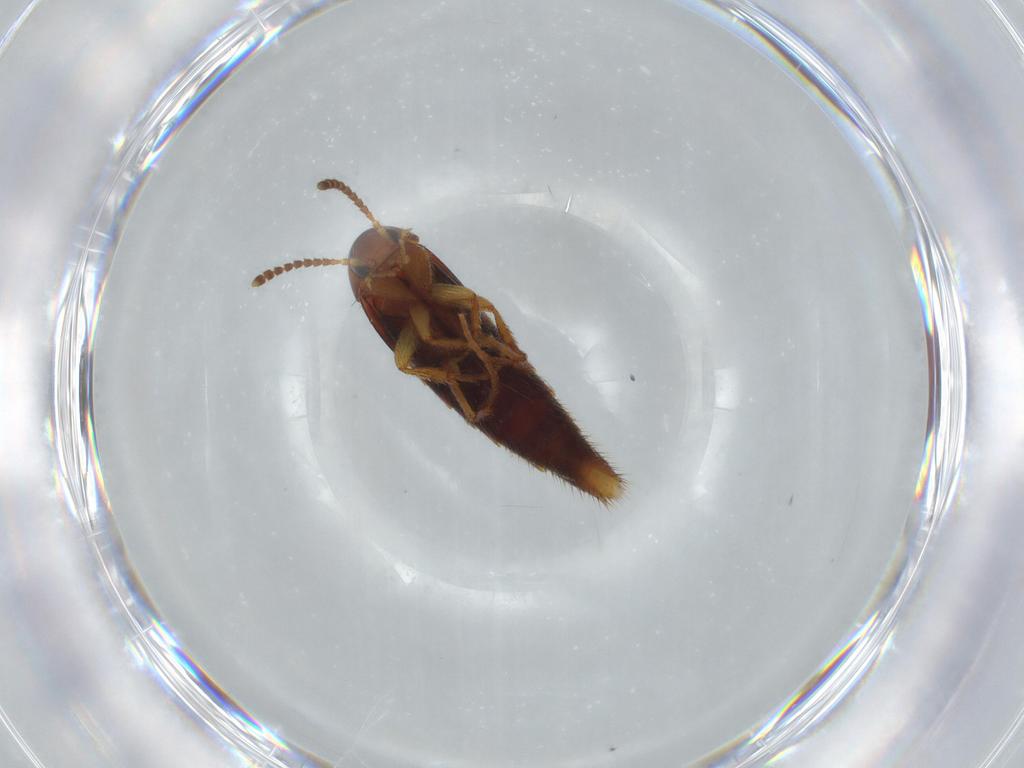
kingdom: Animalia
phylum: Arthropoda
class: Insecta
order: Coleoptera
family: Staphylinidae
